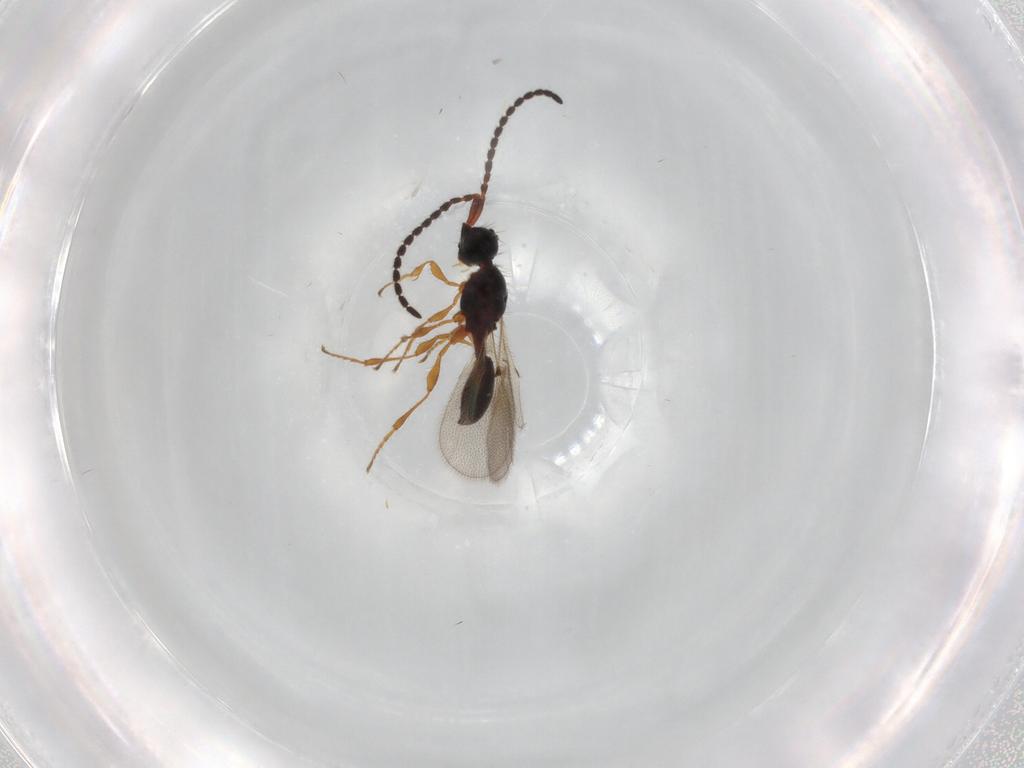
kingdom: Animalia
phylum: Arthropoda
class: Insecta
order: Hymenoptera
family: Diapriidae
